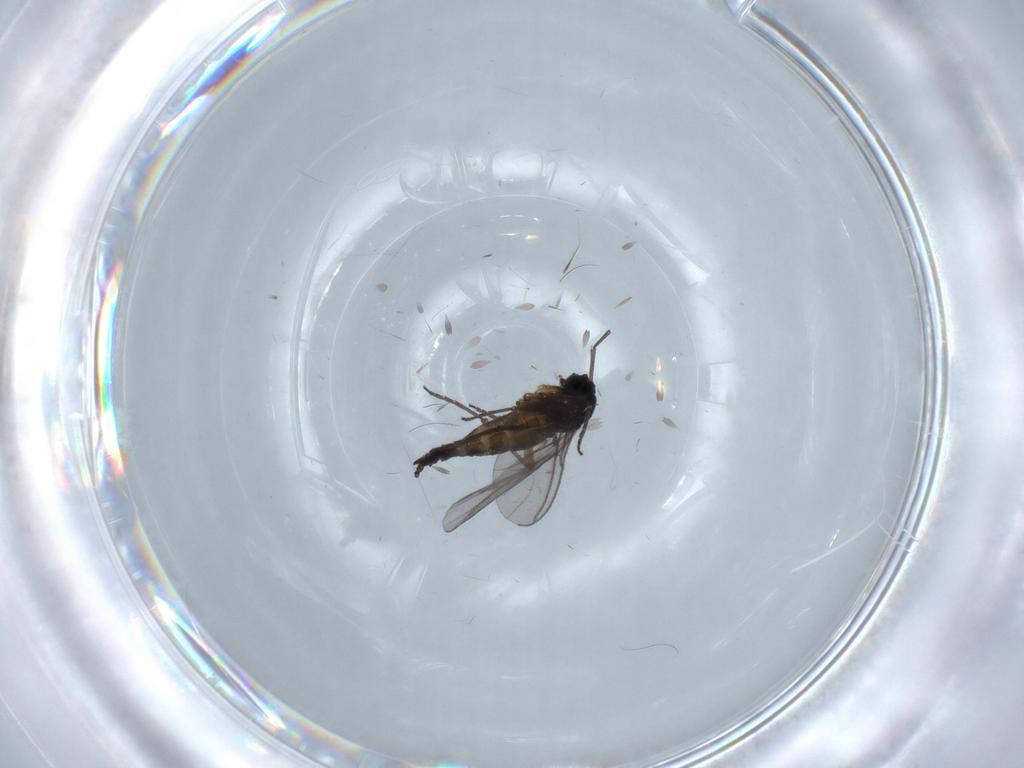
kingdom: Animalia
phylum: Arthropoda
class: Insecta
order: Diptera
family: Sciaridae
